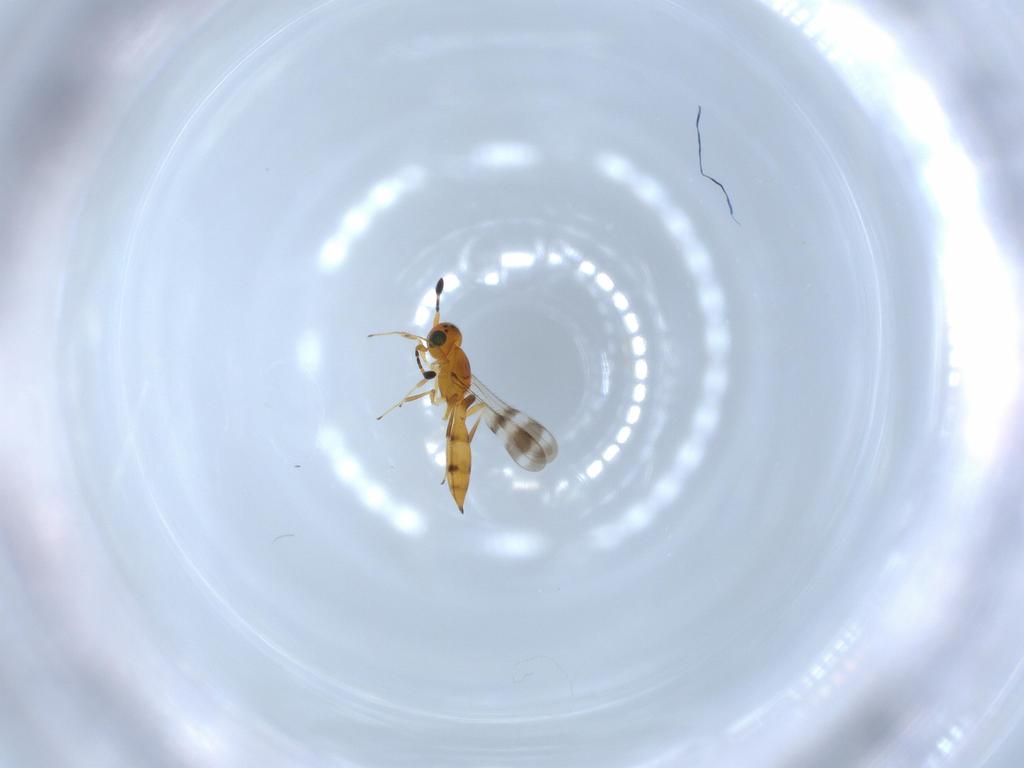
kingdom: Animalia
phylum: Arthropoda
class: Insecta
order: Hymenoptera
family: Scelionidae
